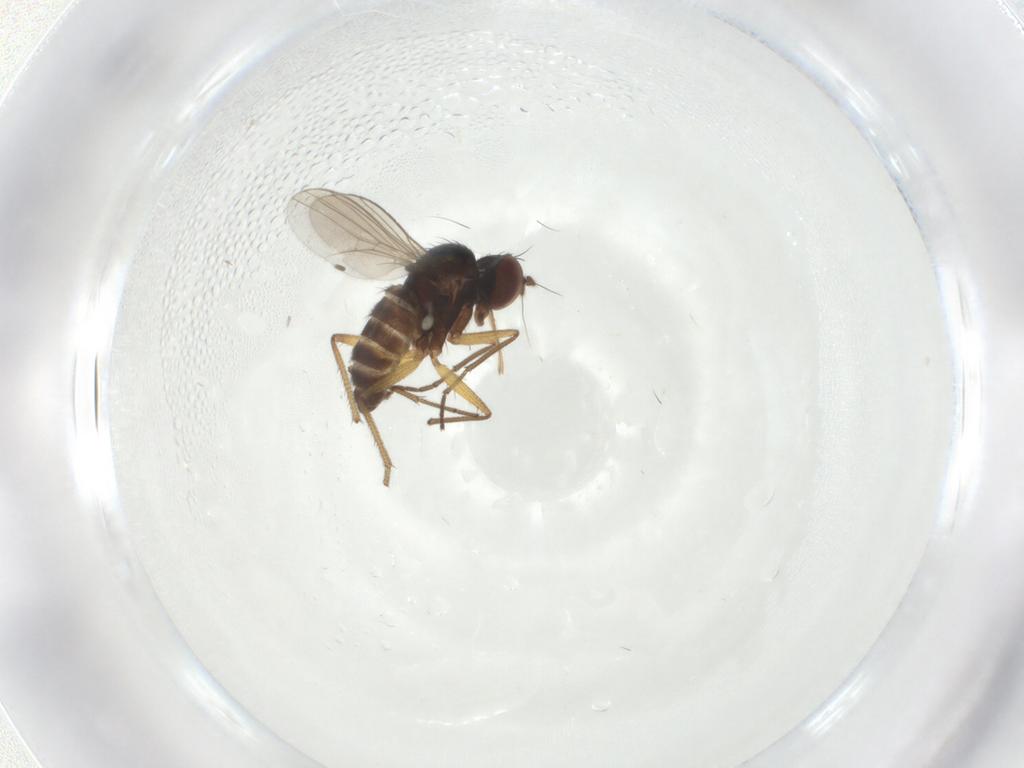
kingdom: Animalia
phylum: Arthropoda
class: Insecta
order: Diptera
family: Dolichopodidae
